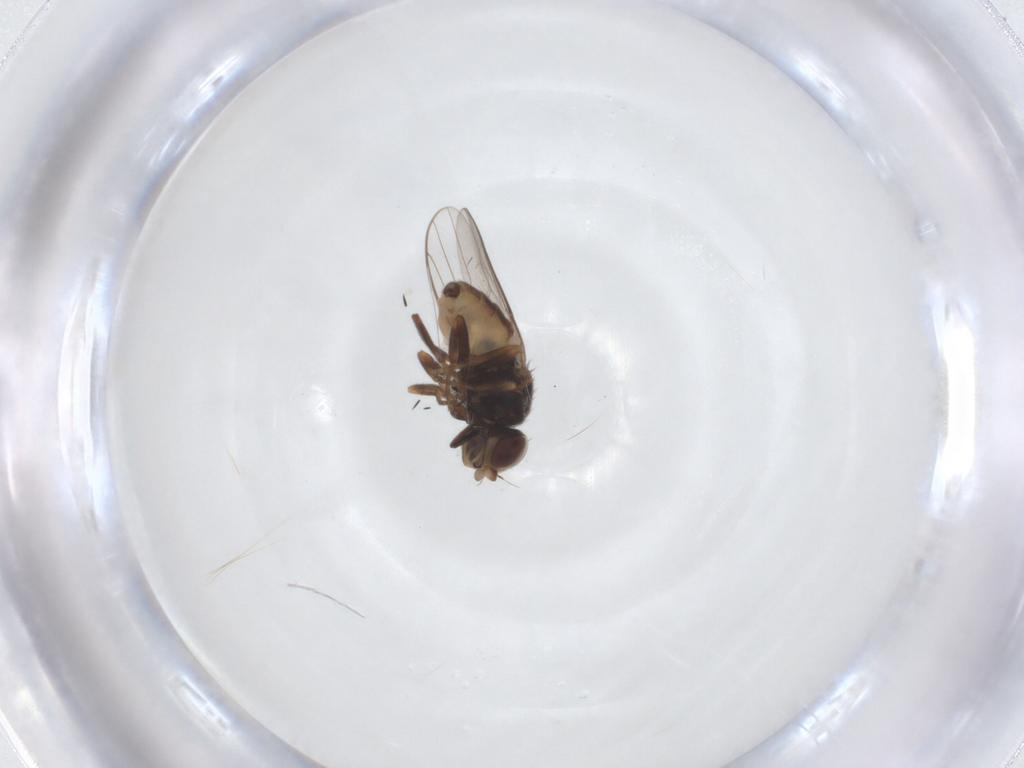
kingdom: Animalia
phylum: Arthropoda
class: Insecta
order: Diptera
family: Chloropidae
